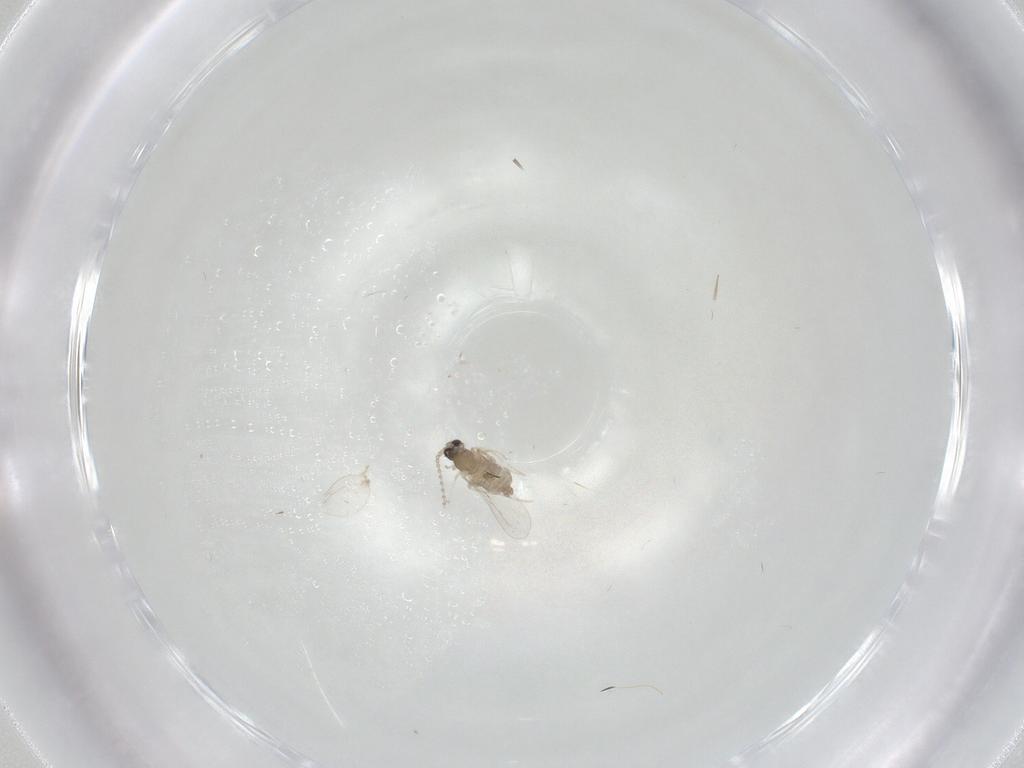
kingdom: Animalia
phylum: Arthropoda
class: Insecta
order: Diptera
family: Cecidomyiidae
